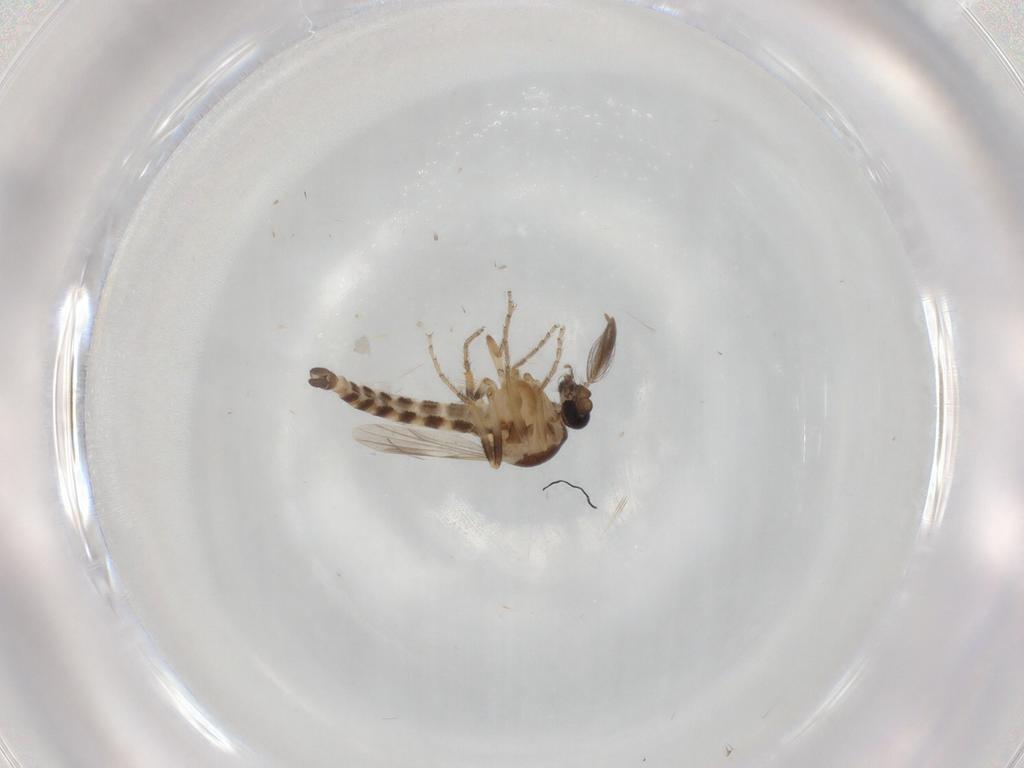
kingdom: Animalia
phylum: Arthropoda
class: Insecta
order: Diptera
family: Ceratopogonidae
